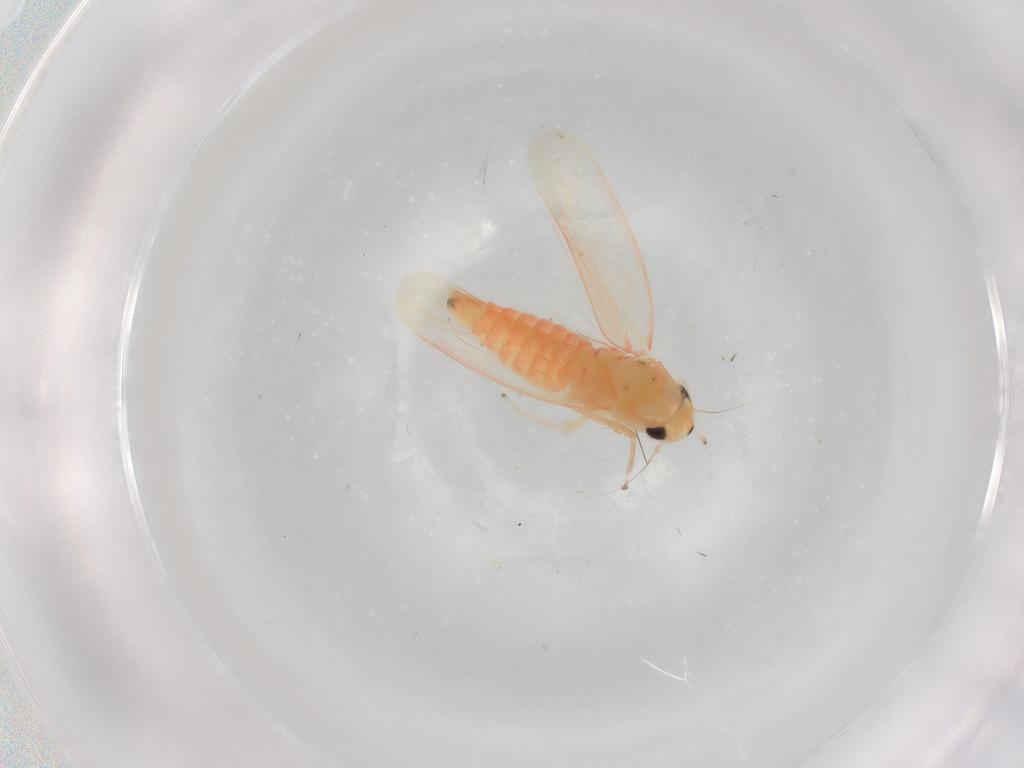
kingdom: Animalia
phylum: Arthropoda
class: Insecta
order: Hemiptera
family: Cicadellidae
